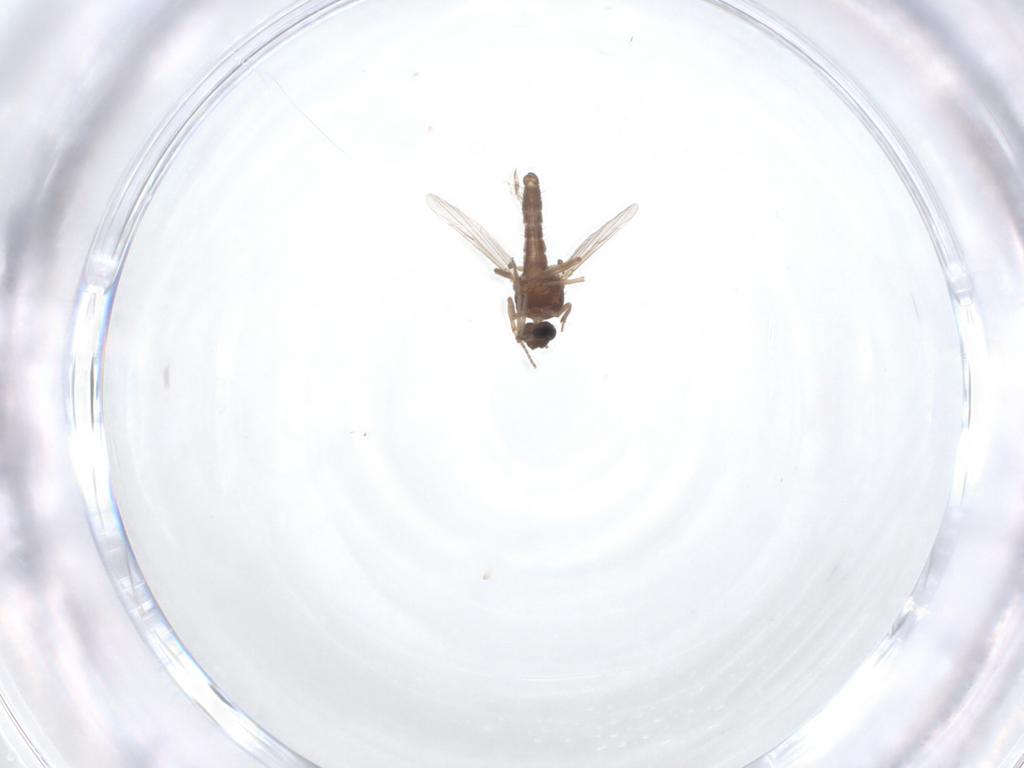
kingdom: Animalia
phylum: Arthropoda
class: Insecta
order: Diptera
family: Ceratopogonidae
